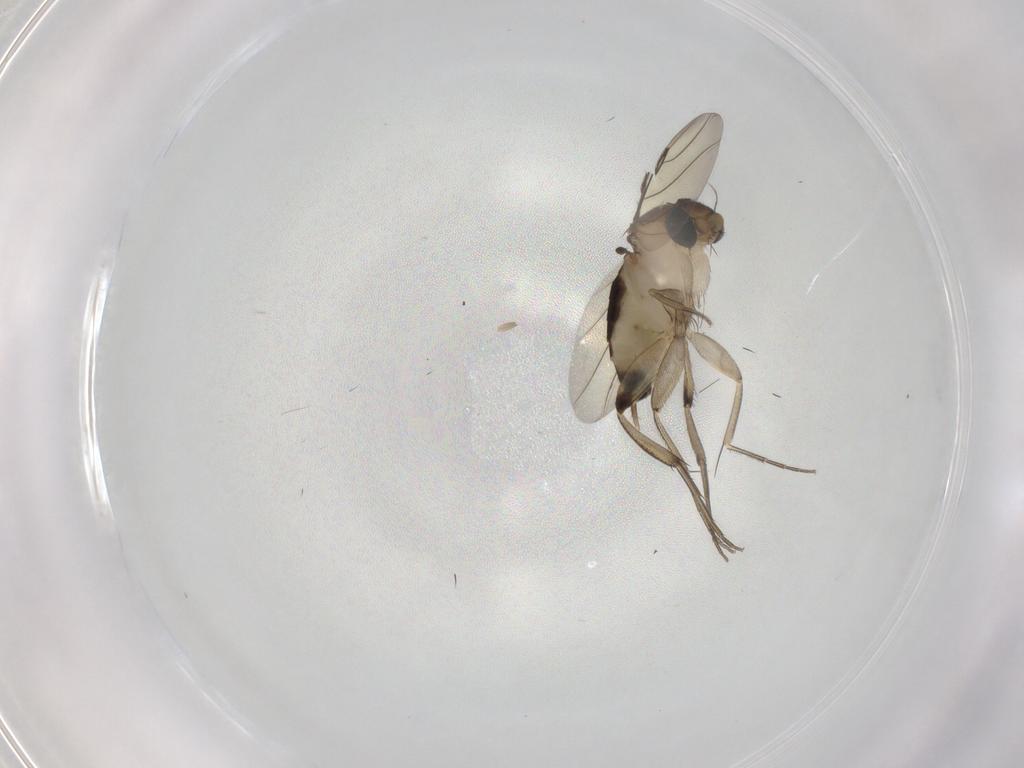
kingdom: Animalia
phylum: Arthropoda
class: Insecta
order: Diptera
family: Phoridae
